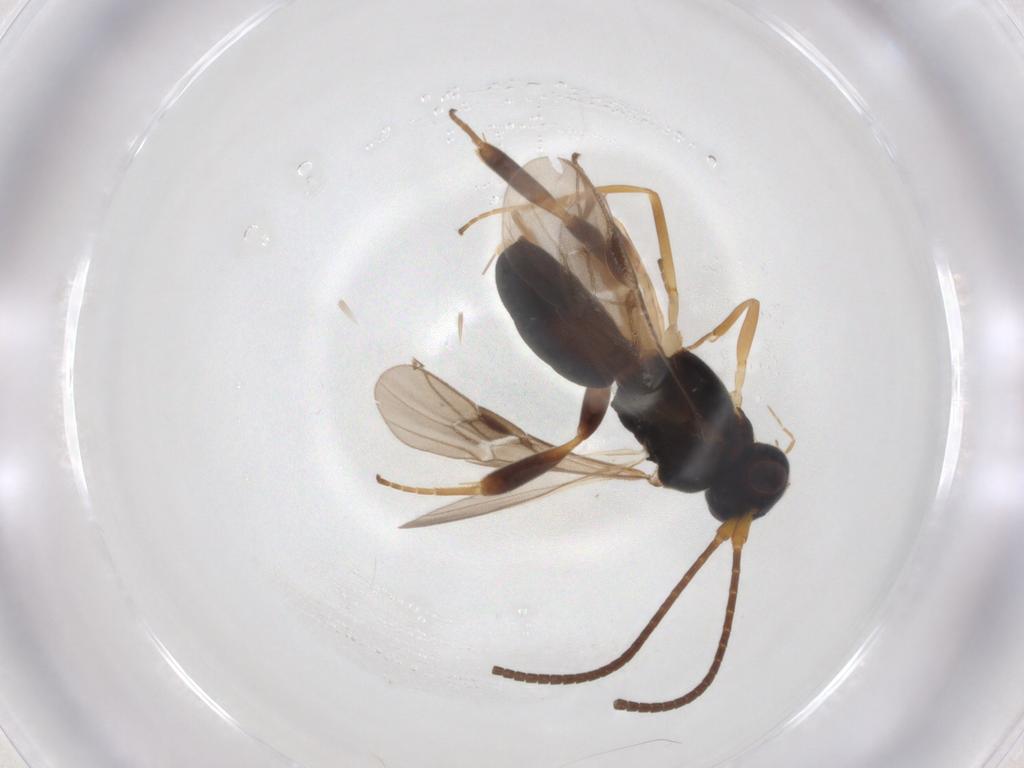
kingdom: Animalia
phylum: Arthropoda
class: Insecta
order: Hymenoptera
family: Braconidae
